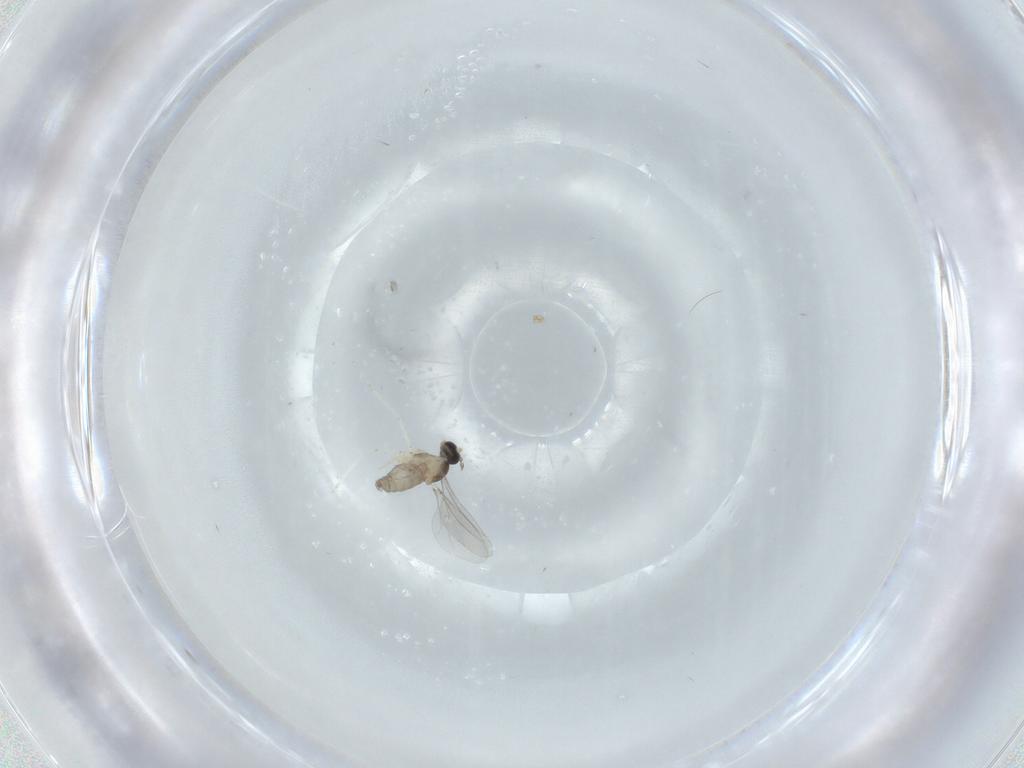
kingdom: Animalia
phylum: Arthropoda
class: Insecta
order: Diptera
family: Cecidomyiidae
